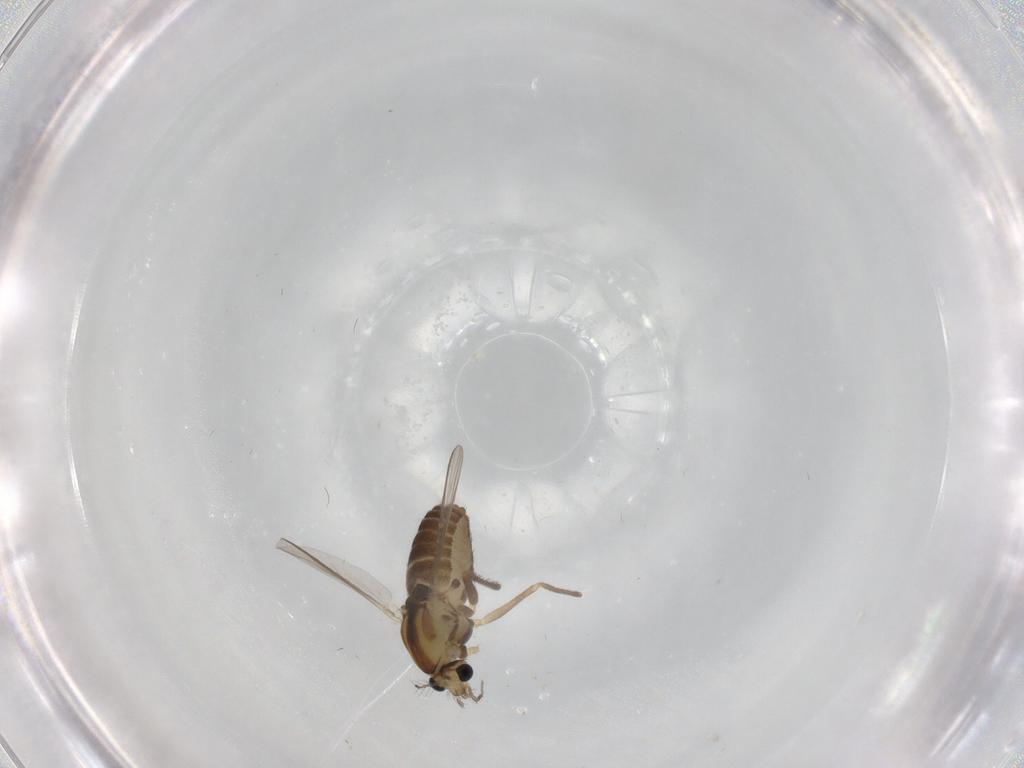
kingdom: Animalia
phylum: Arthropoda
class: Insecta
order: Diptera
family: Chironomidae
